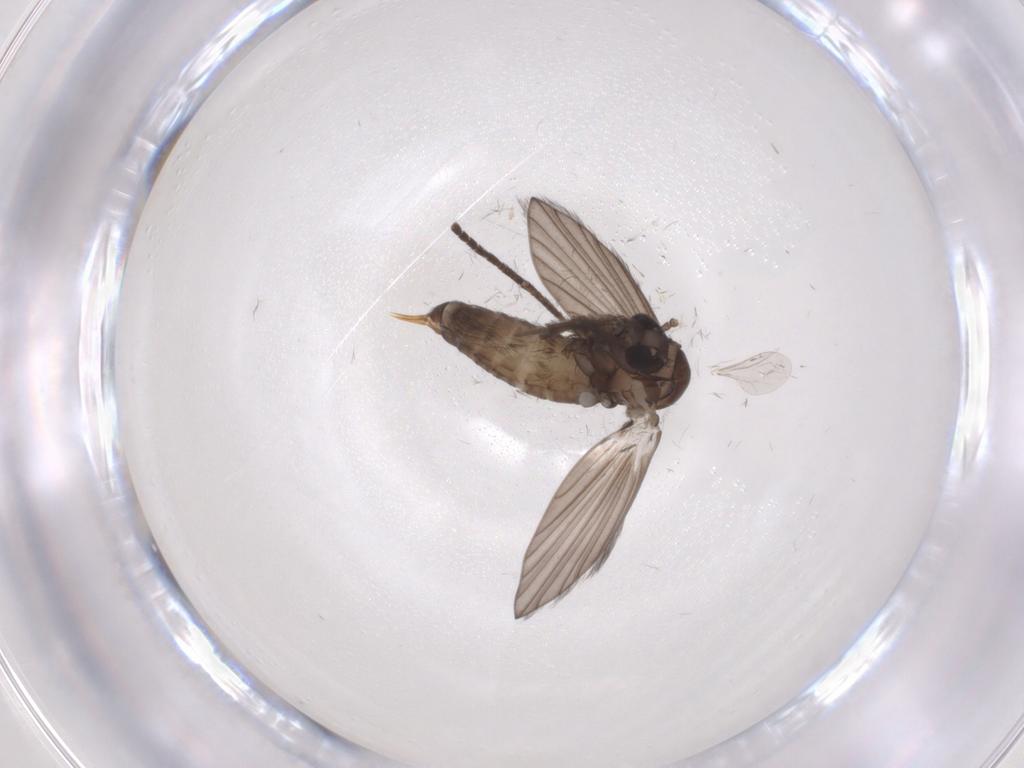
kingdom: Animalia
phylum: Arthropoda
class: Insecta
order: Diptera
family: Psychodidae
